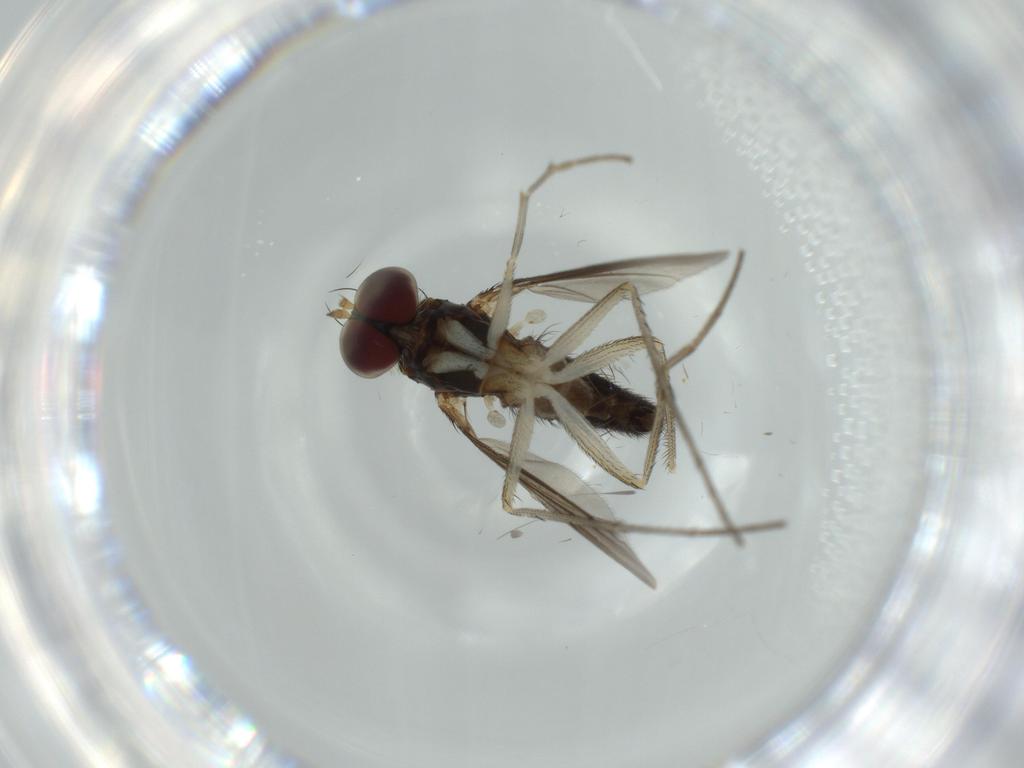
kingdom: Animalia
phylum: Arthropoda
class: Insecta
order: Diptera
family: Dolichopodidae
